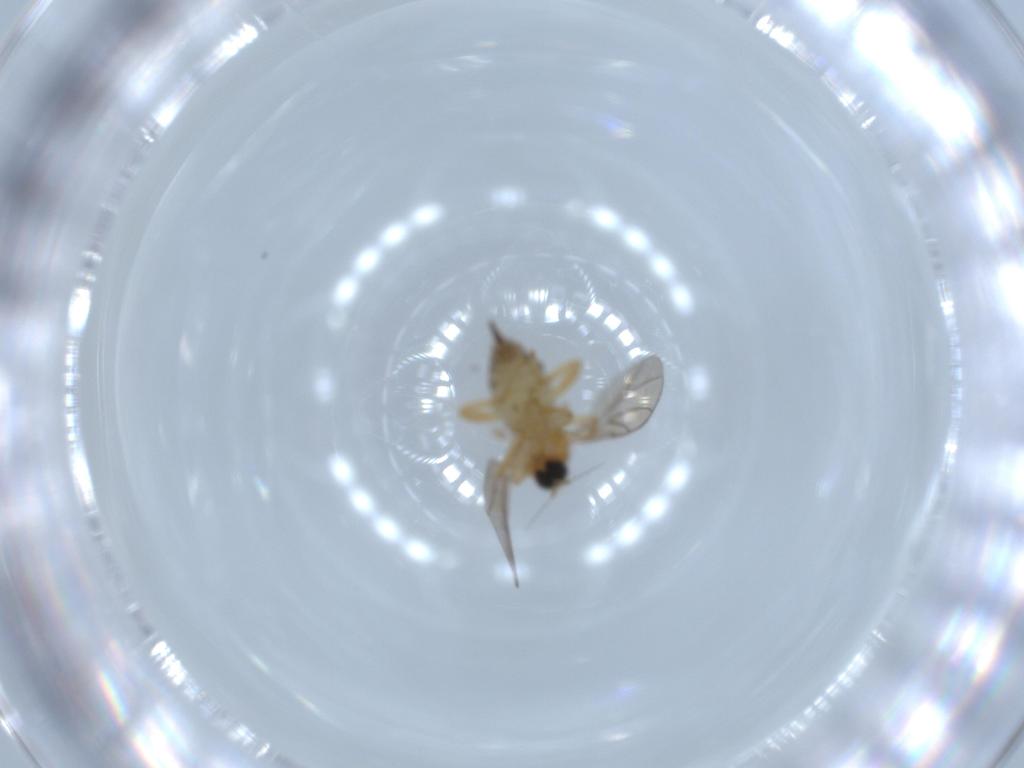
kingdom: Animalia
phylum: Arthropoda
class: Insecta
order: Diptera
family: Hybotidae
